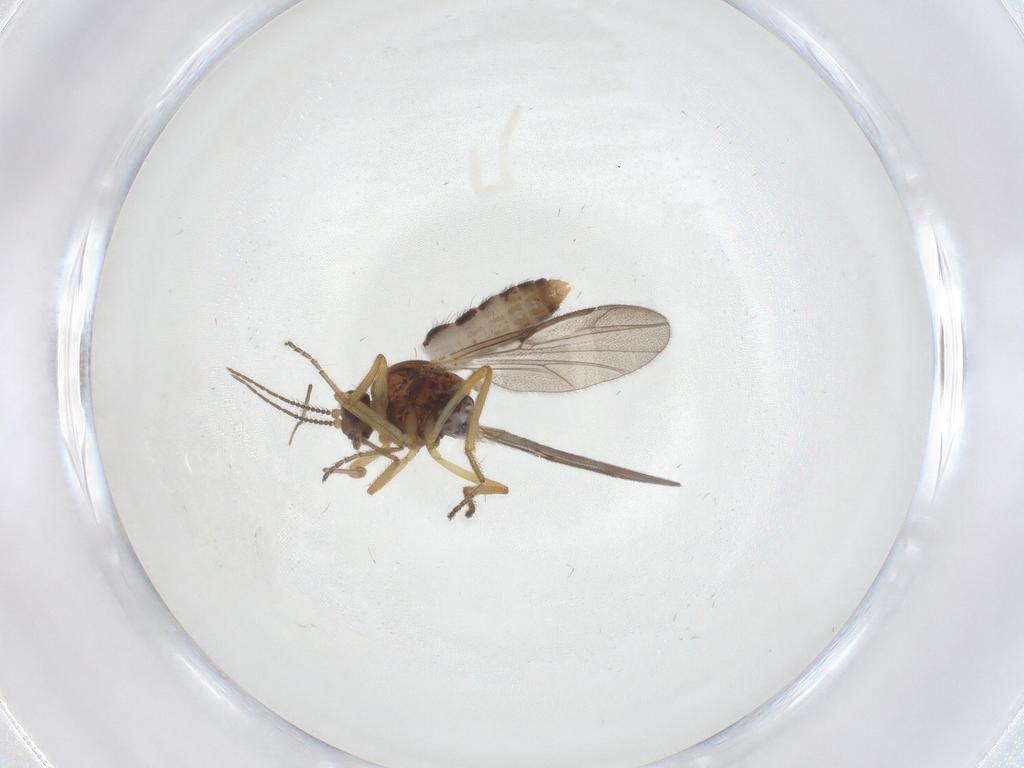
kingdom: Animalia
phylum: Arthropoda
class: Insecta
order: Diptera
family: Ceratopogonidae
